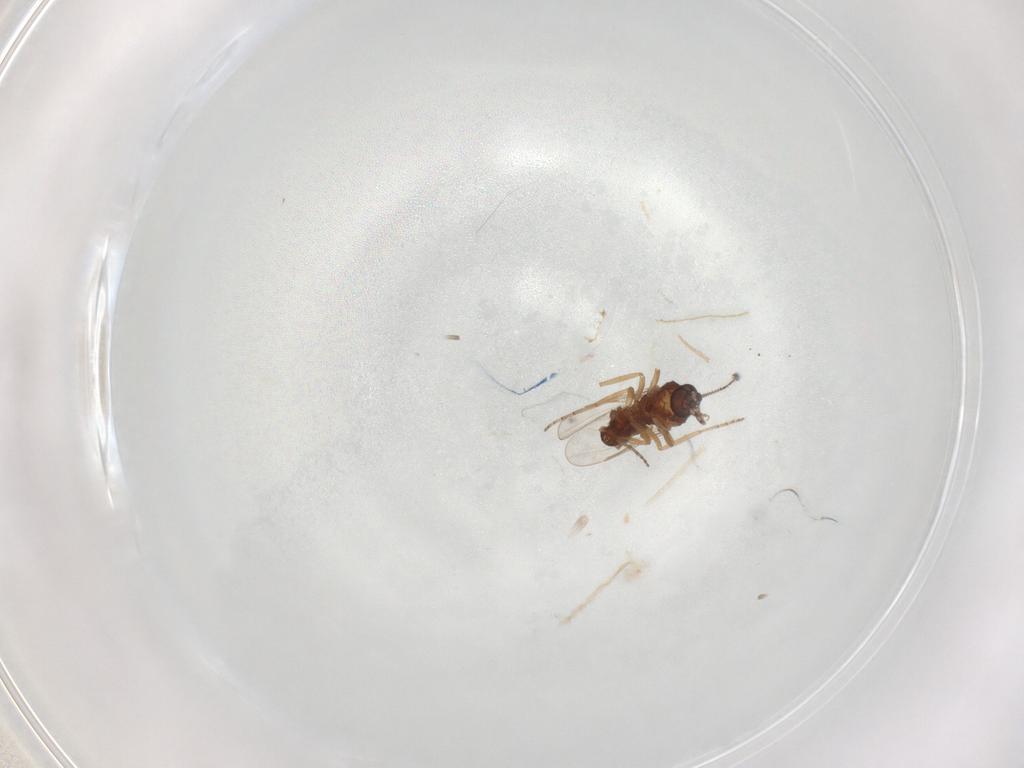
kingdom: Animalia
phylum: Arthropoda
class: Insecta
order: Diptera
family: Ceratopogonidae
